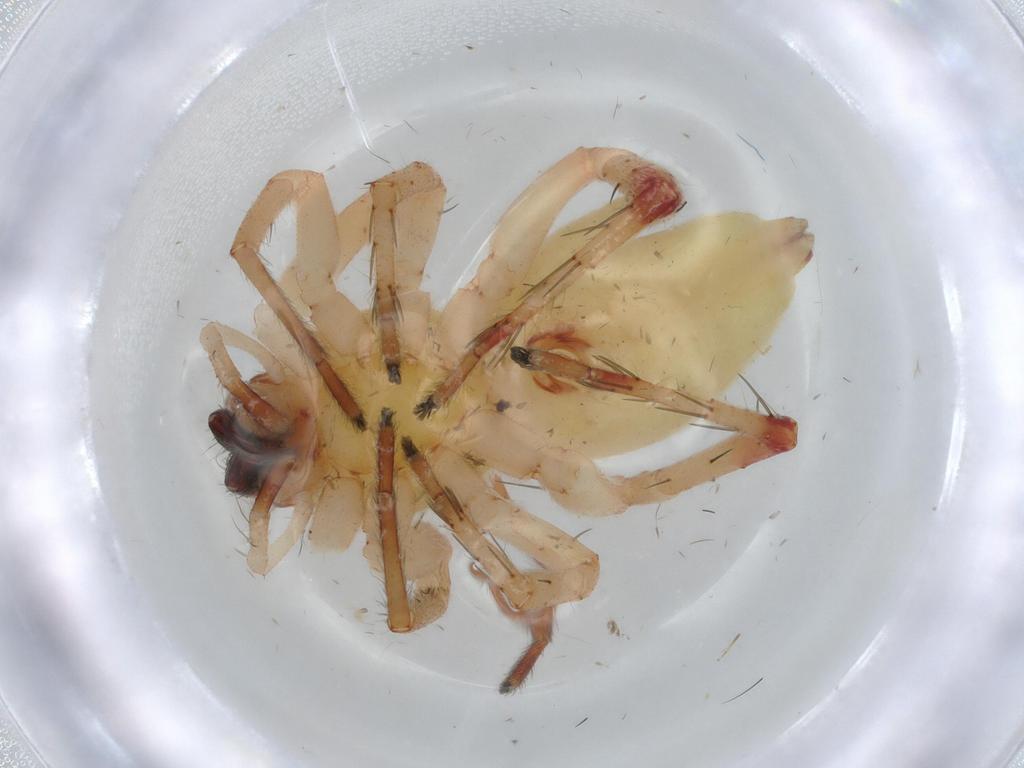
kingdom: Animalia
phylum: Arthropoda
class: Arachnida
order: Araneae
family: Anyphaenidae
